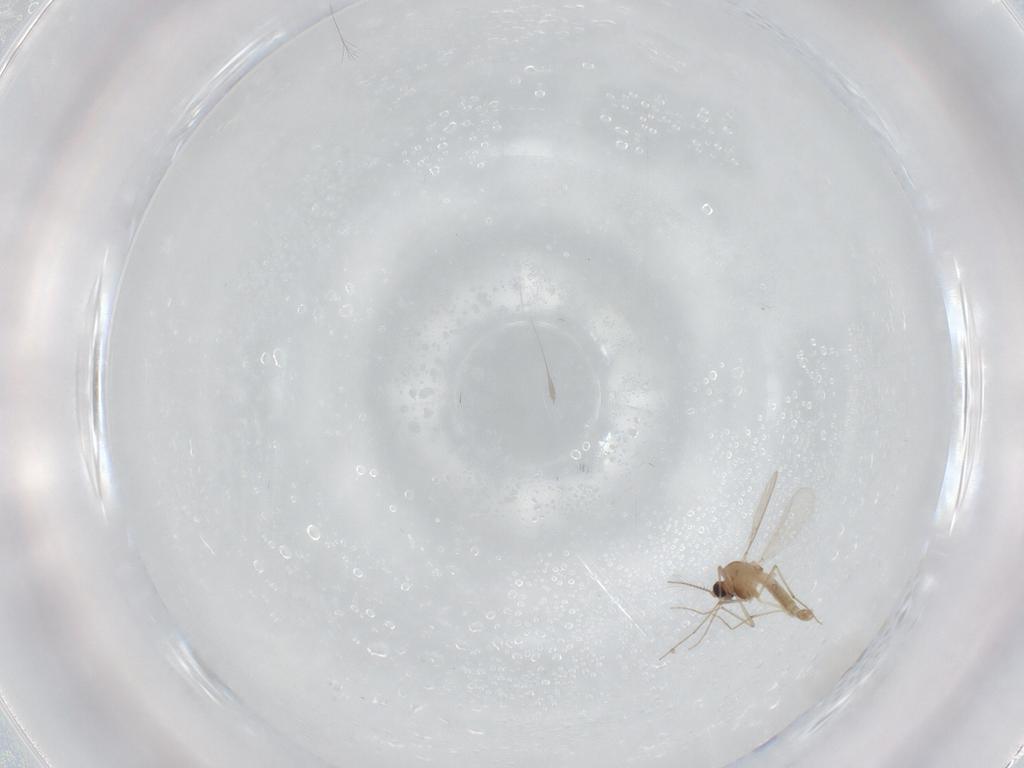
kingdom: Animalia
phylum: Arthropoda
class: Insecta
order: Diptera
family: Chironomidae
